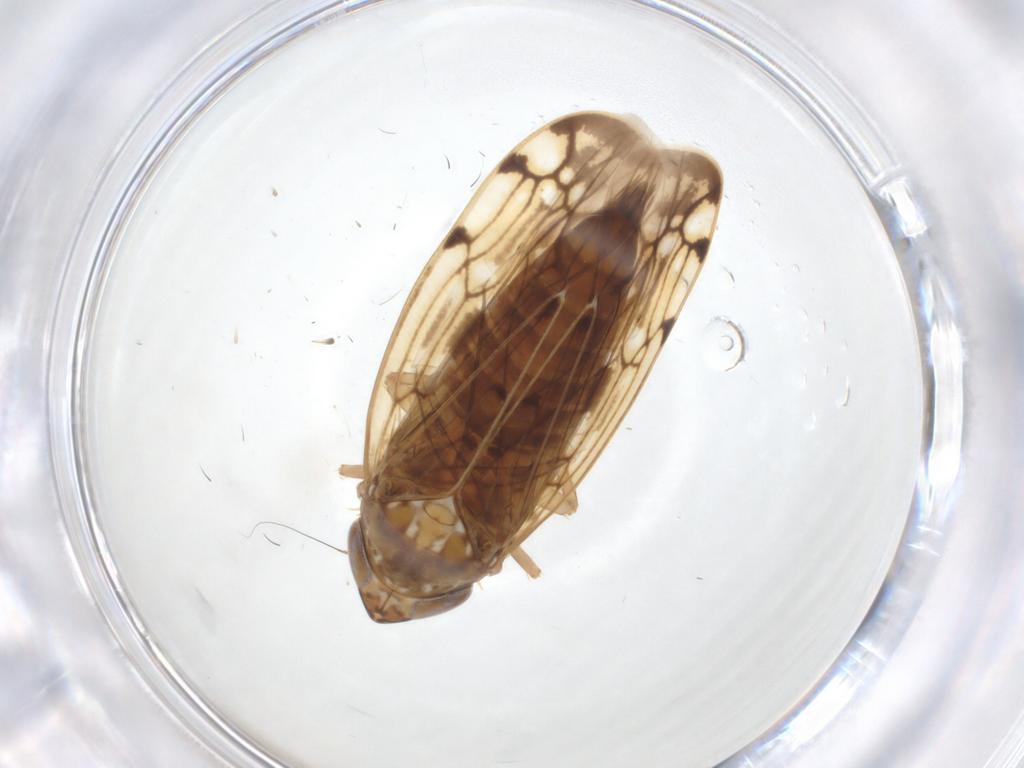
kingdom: Animalia
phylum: Arthropoda
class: Insecta
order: Hemiptera
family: Cicadellidae
